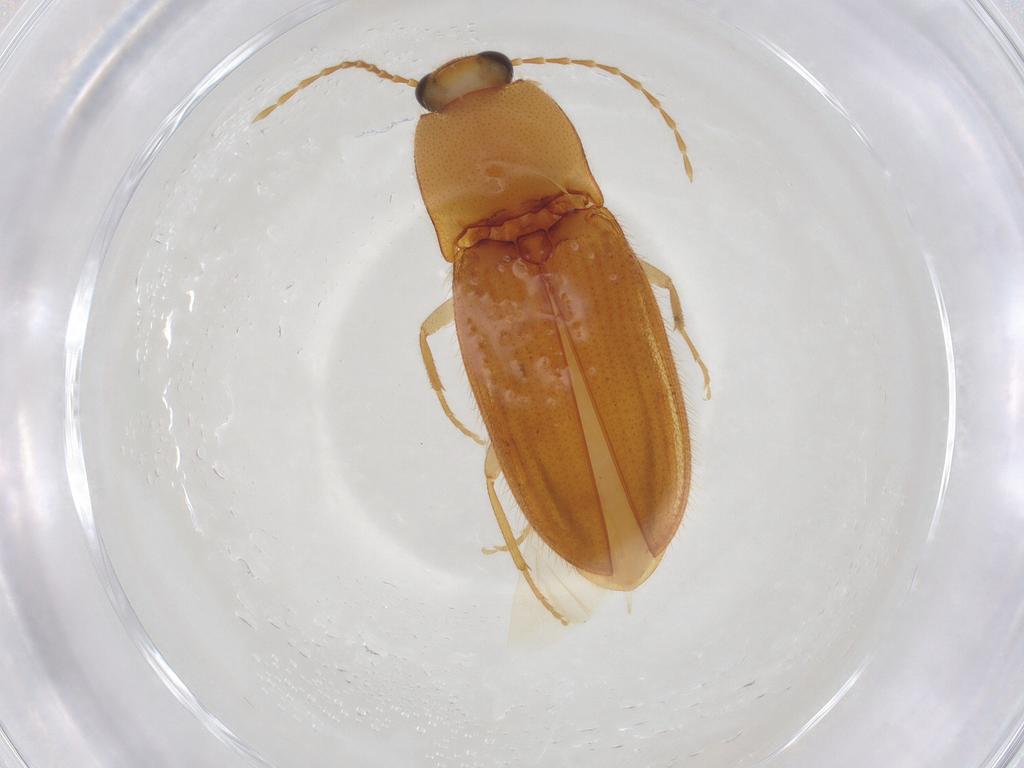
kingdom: Animalia
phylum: Arthropoda
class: Insecta
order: Coleoptera
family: Elateridae
